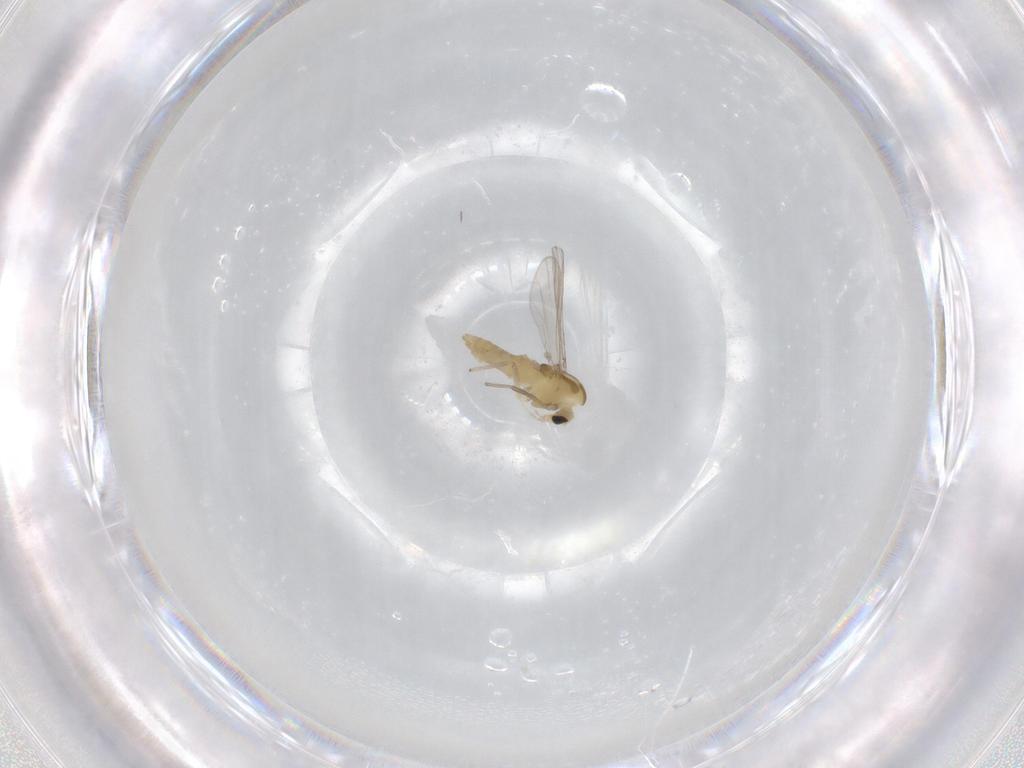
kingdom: Animalia
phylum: Arthropoda
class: Insecta
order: Diptera
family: Chironomidae
